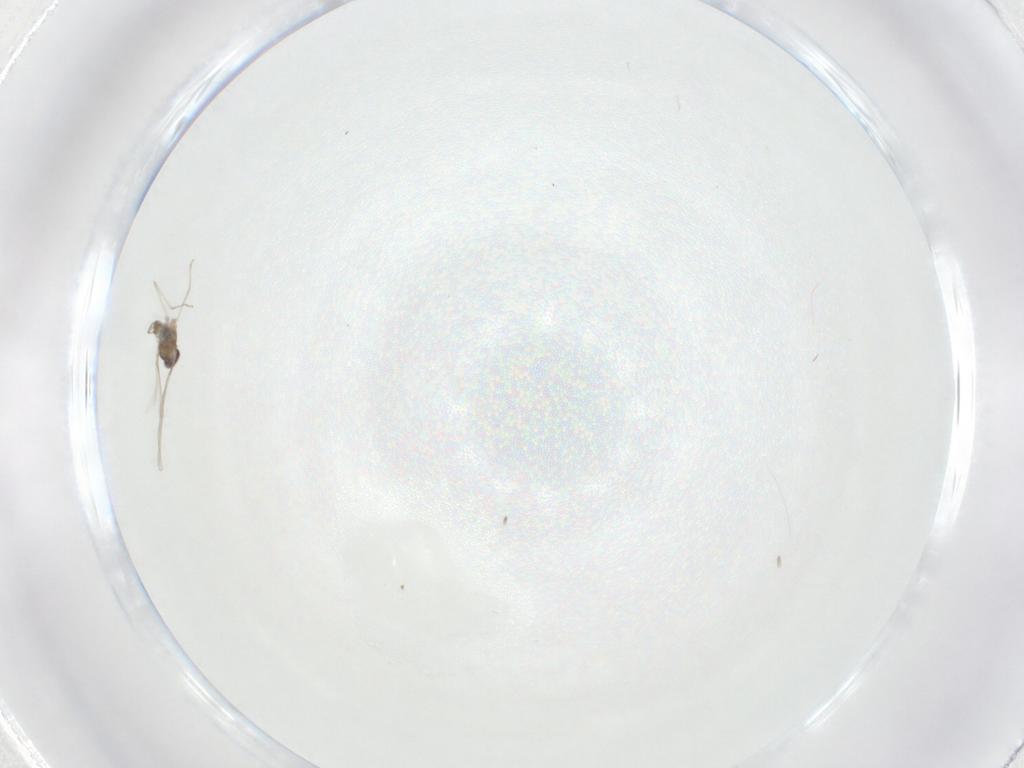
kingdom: Animalia
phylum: Arthropoda
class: Insecta
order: Diptera
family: Cecidomyiidae
